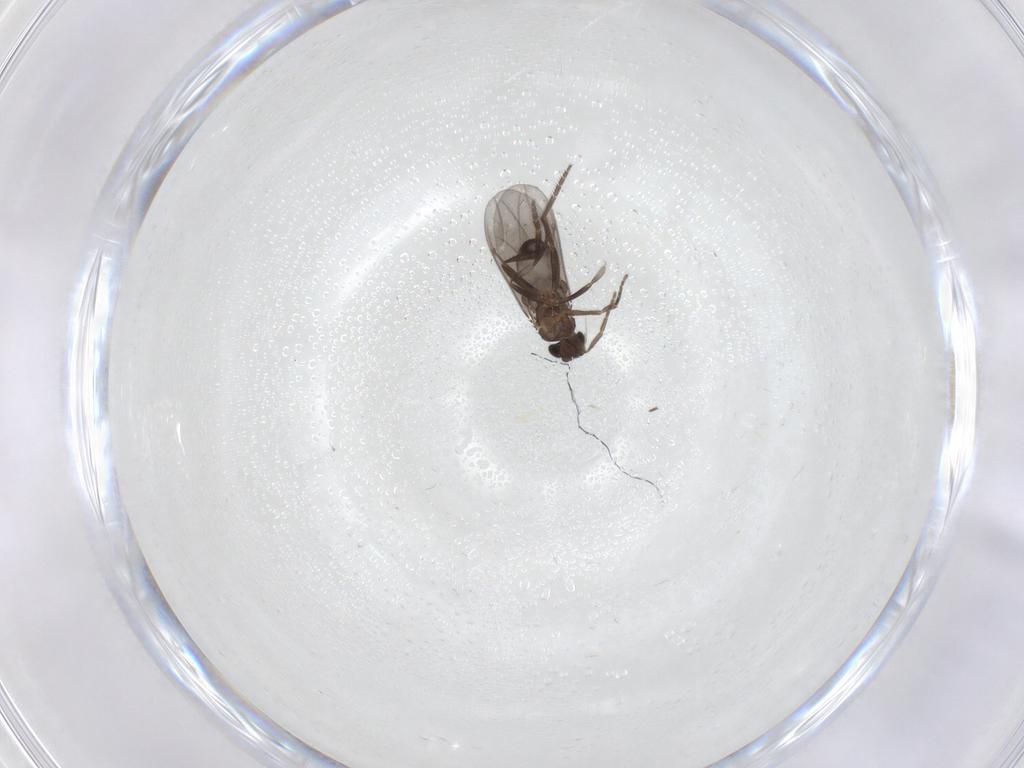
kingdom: Animalia
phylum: Arthropoda
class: Insecta
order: Diptera
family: Phoridae
